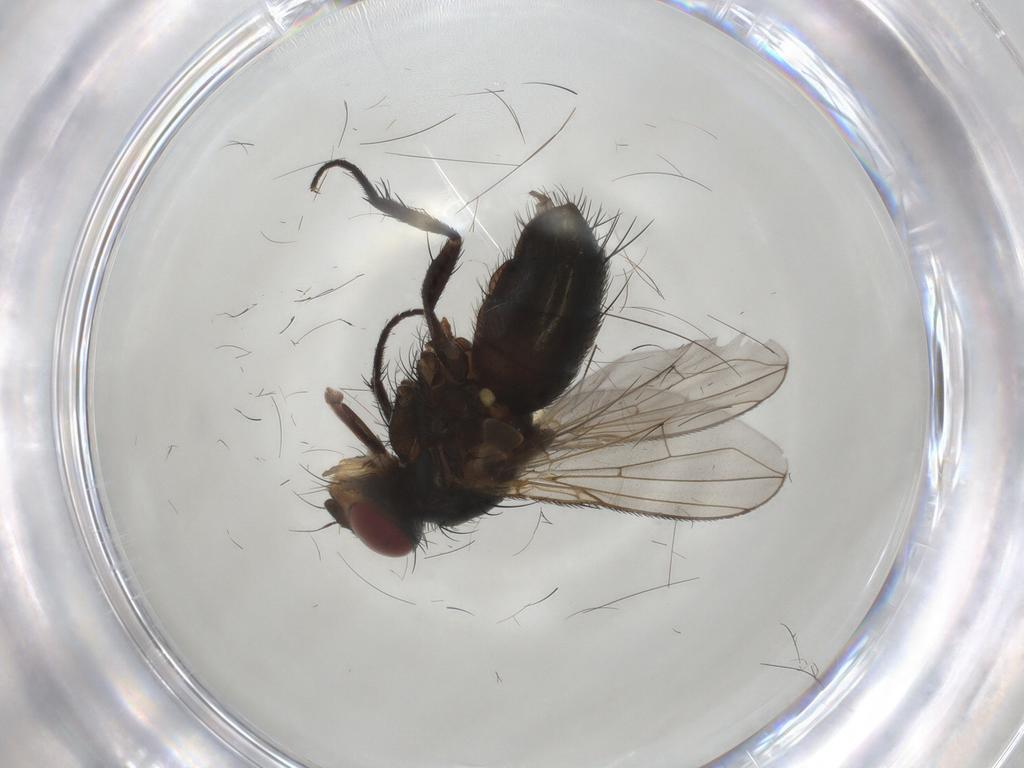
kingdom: Animalia
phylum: Arthropoda
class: Insecta
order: Diptera
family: Calliphoridae
